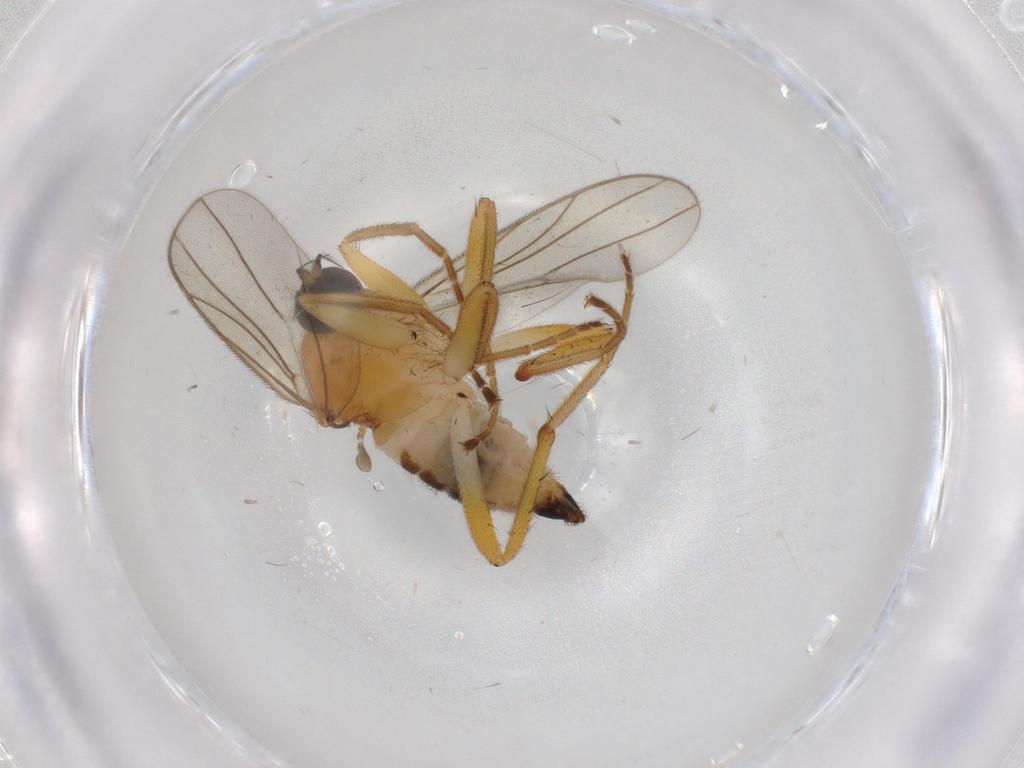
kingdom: Animalia
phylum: Arthropoda
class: Insecta
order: Diptera
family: Hybotidae
